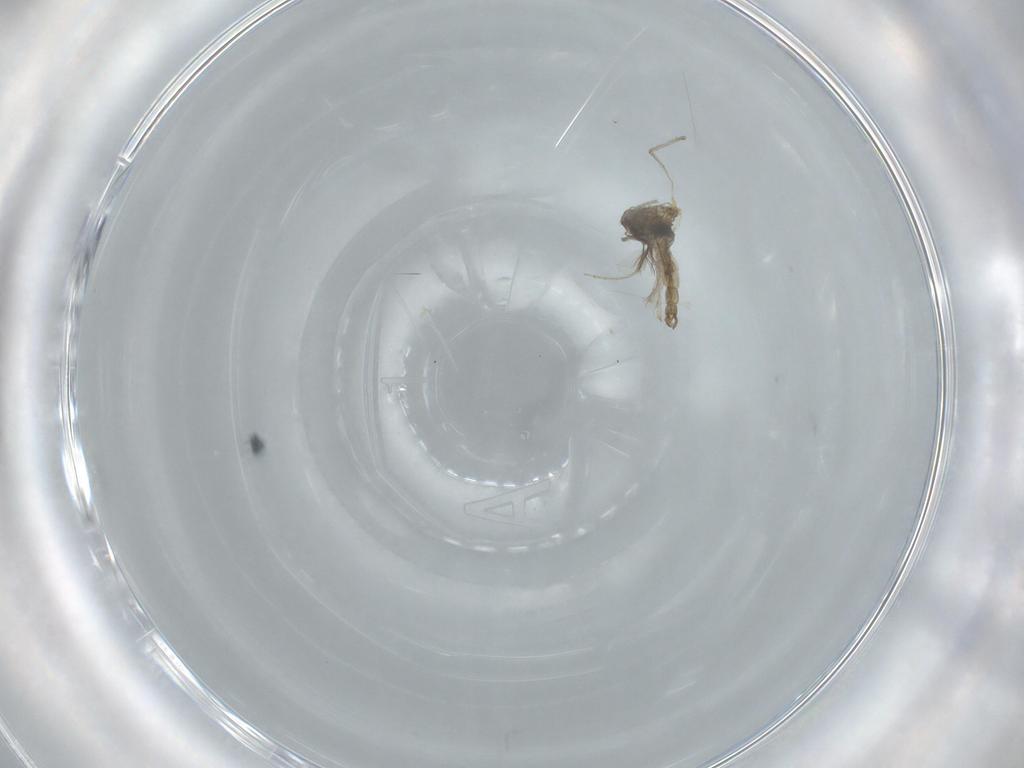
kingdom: Animalia
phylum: Arthropoda
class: Insecta
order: Diptera
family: Chironomidae
